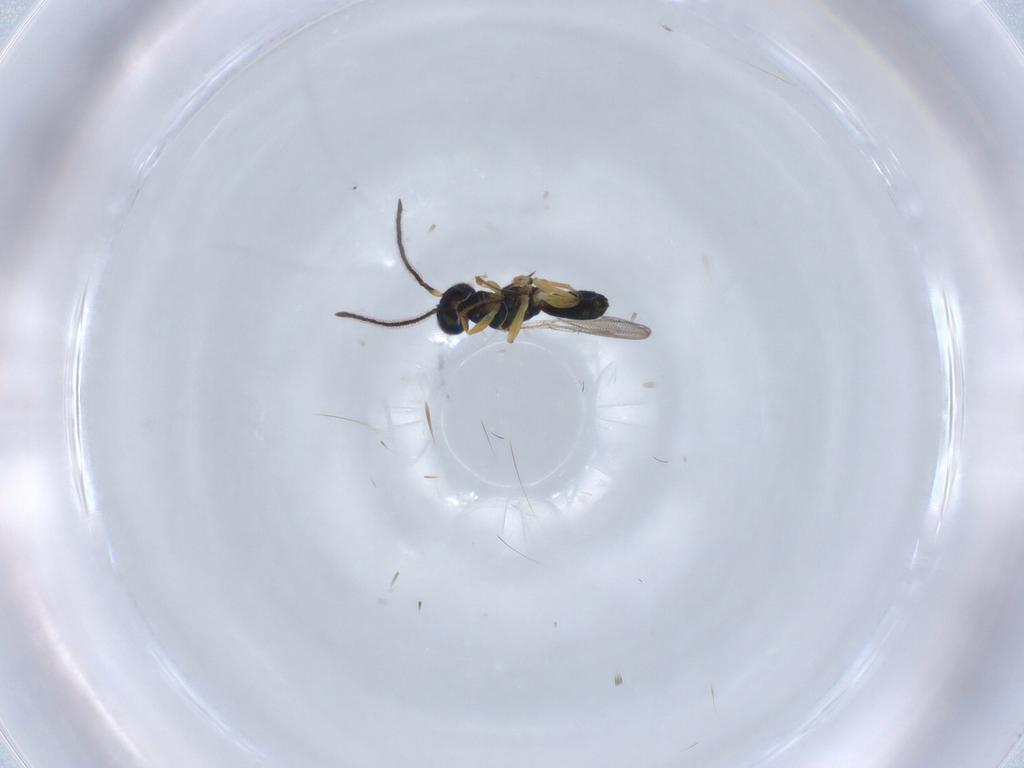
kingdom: Animalia
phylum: Arthropoda
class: Insecta
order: Hymenoptera
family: Eupelmidae
